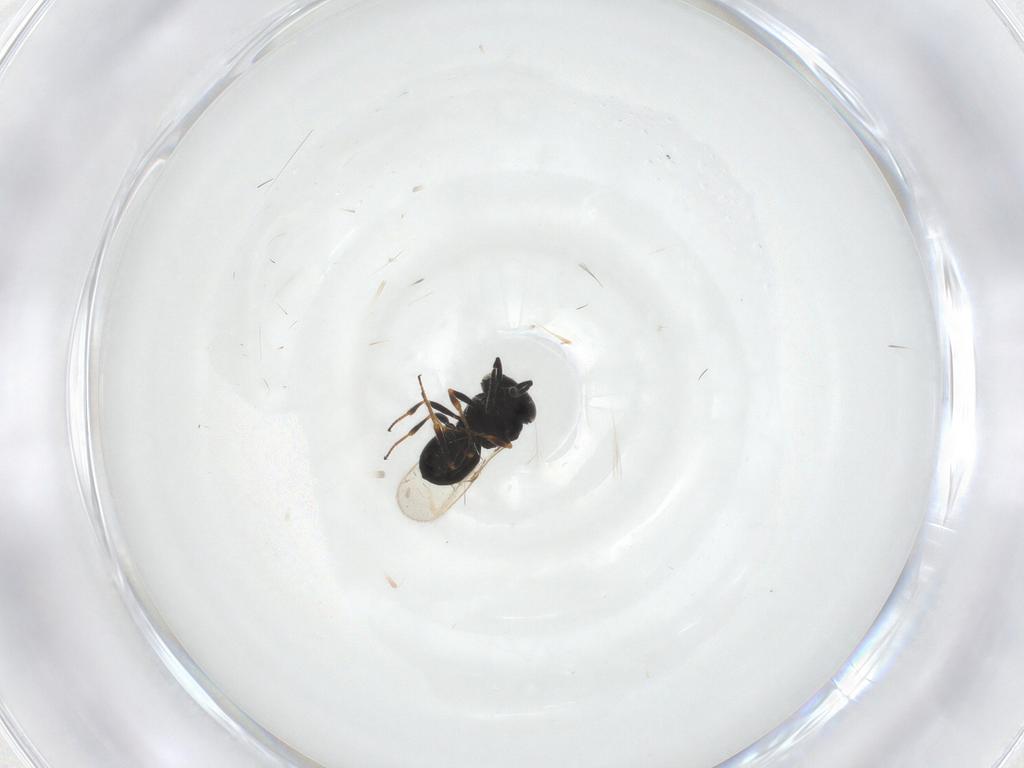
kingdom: Animalia
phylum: Arthropoda
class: Insecta
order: Hymenoptera
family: Scelionidae
